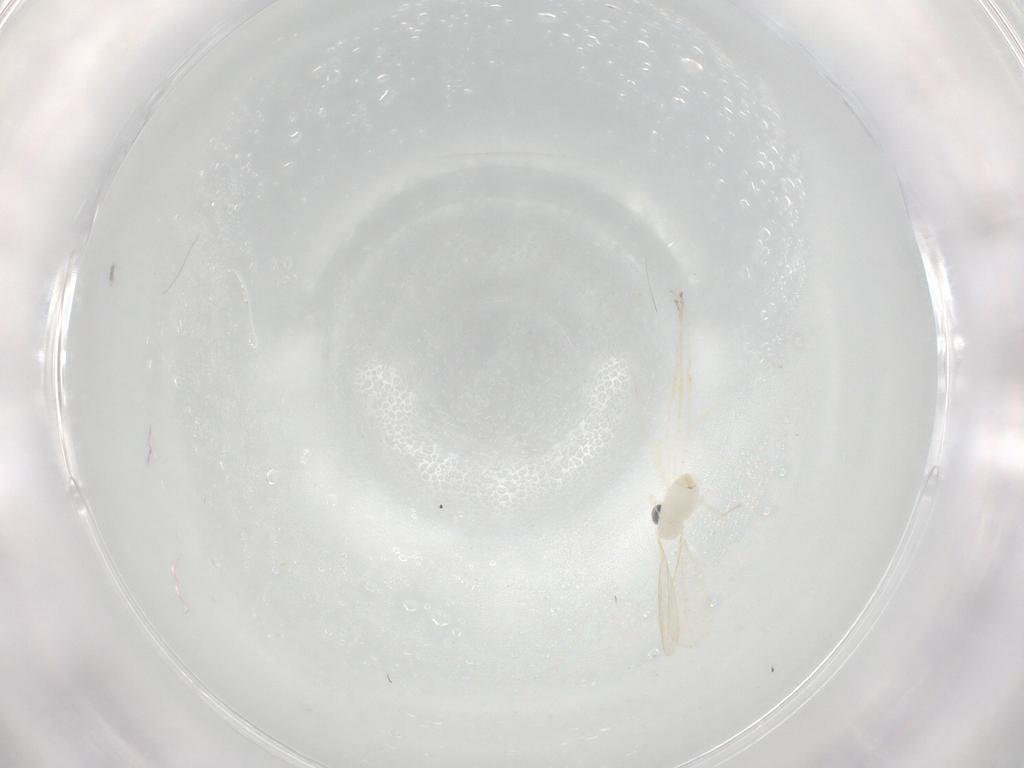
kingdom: Animalia
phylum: Arthropoda
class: Insecta
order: Diptera
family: Cecidomyiidae
